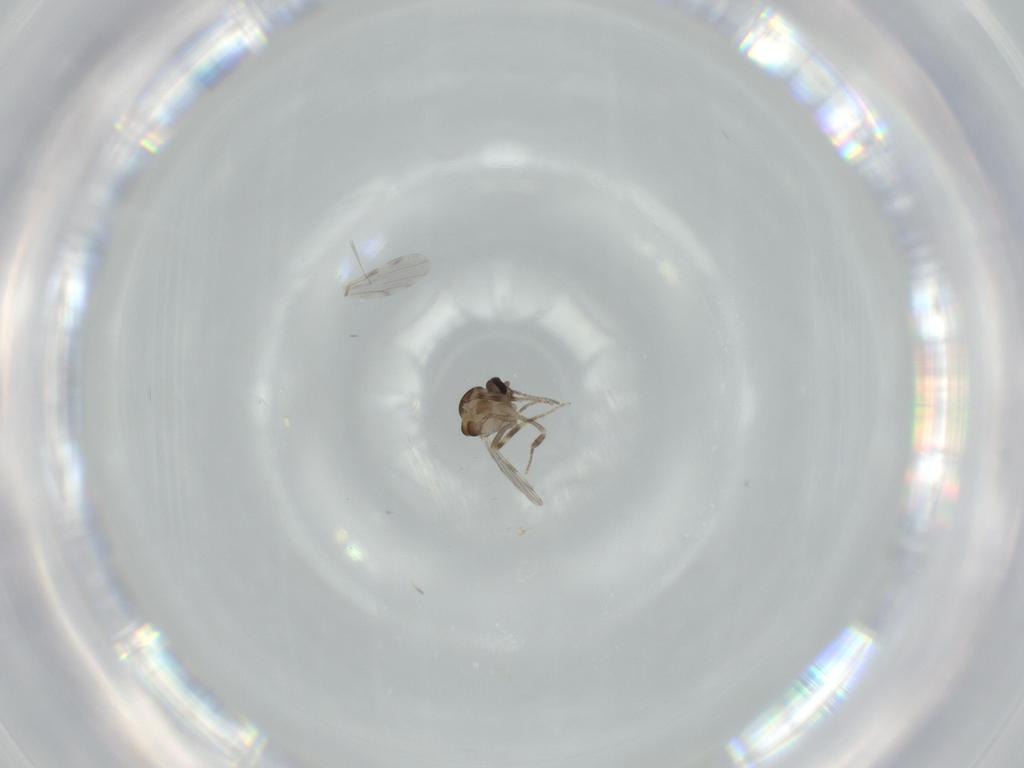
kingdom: Animalia
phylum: Arthropoda
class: Insecta
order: Diptera
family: Ceratopogonidae
